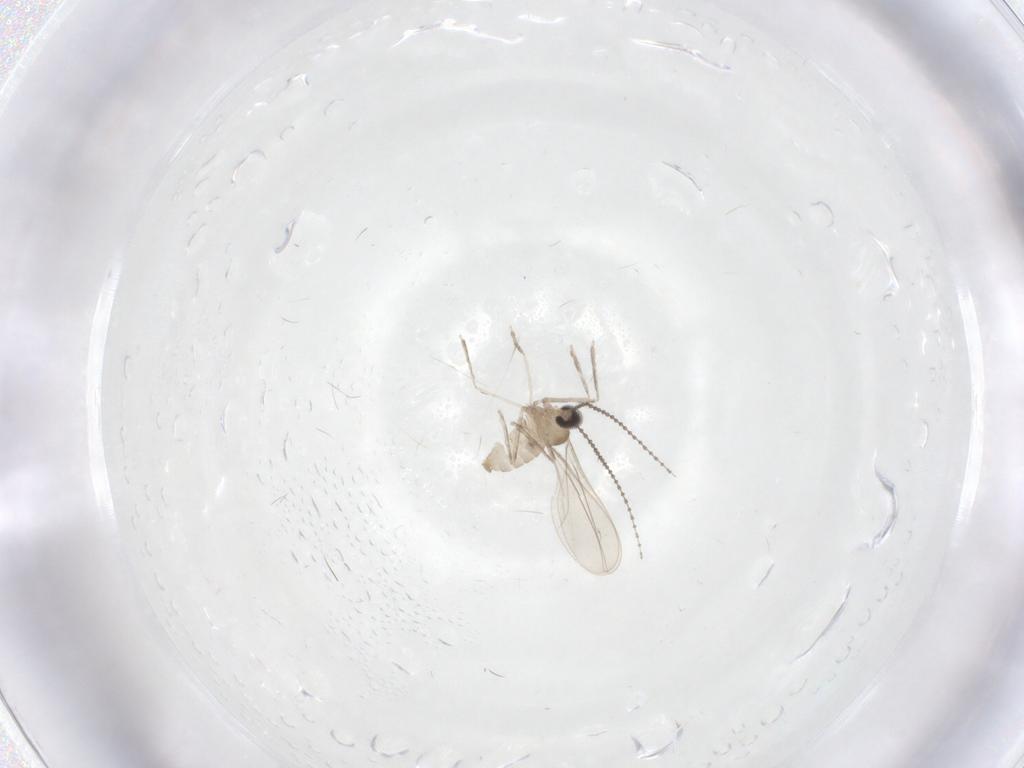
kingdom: Animalia
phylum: Arthropoda
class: Insecta
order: Diptera
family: Cecidomyiidae
